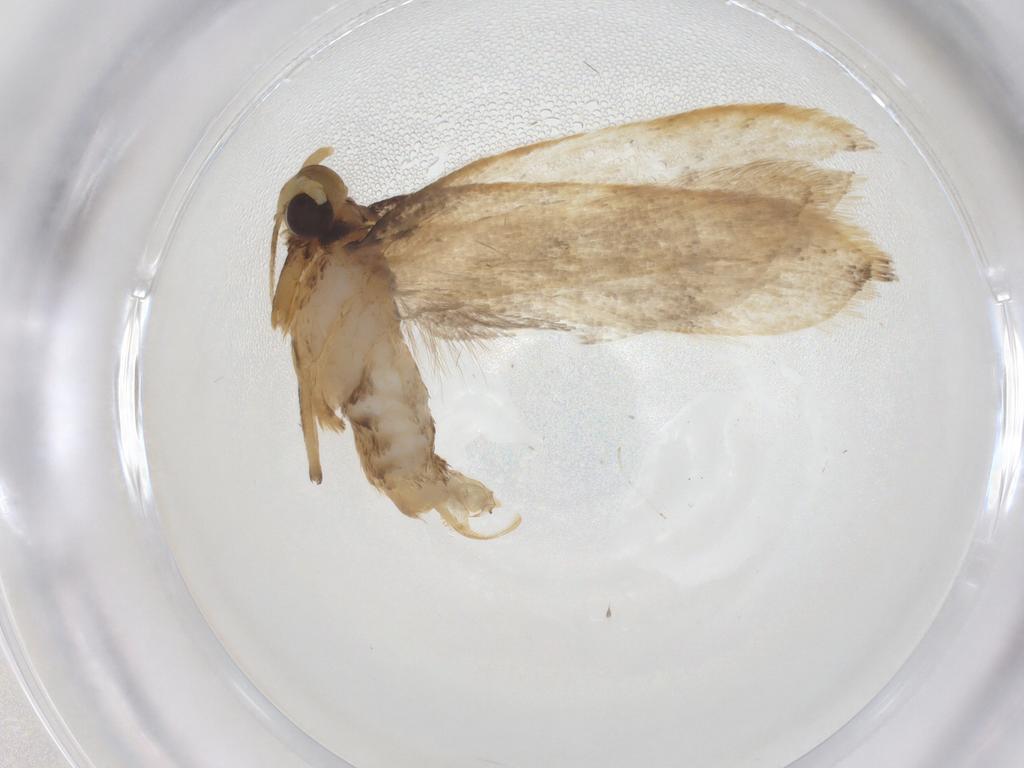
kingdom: Animalia
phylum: Arthropoda
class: Insecta
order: Lepidoptera
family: Lecithoceridae
